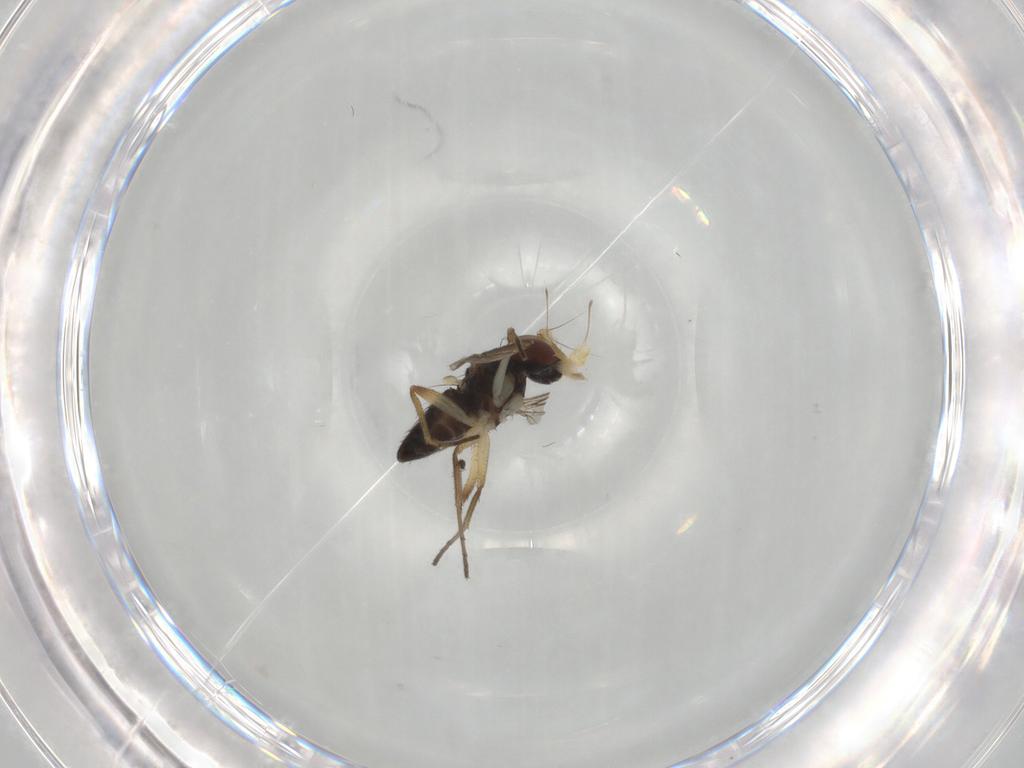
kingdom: Animalia
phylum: Arthropoda
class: Insecta
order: Diptera
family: Dolichopodidae
